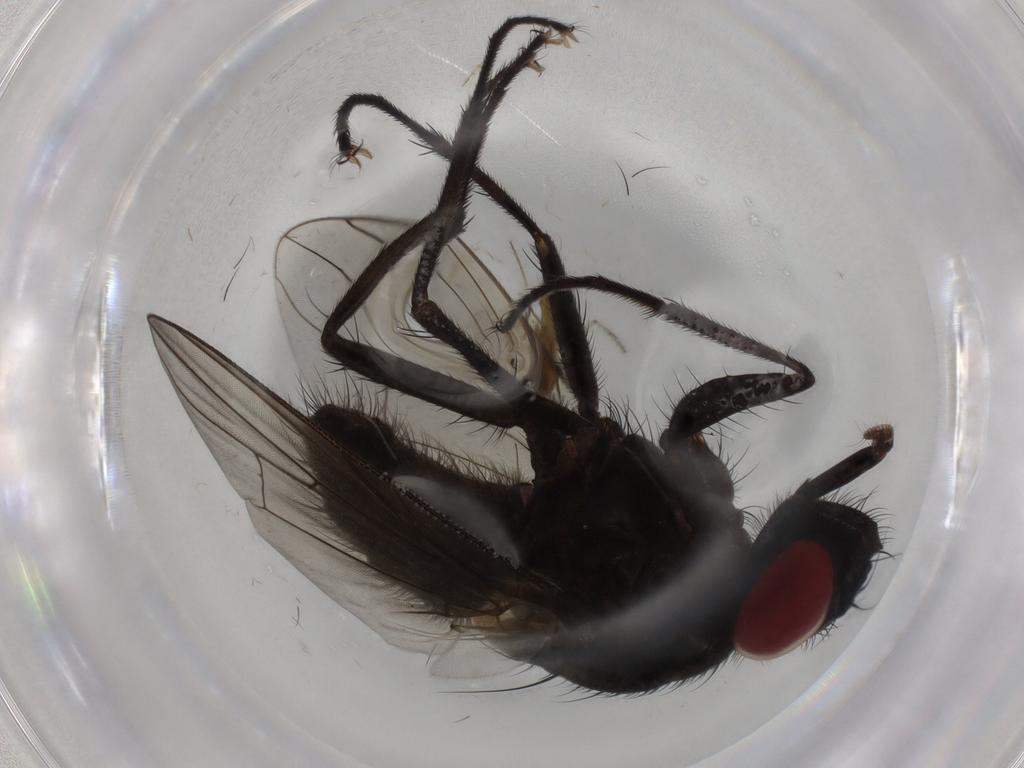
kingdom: Animalia
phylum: Arthropoda
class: Insecta
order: Diptera
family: Muscidae
